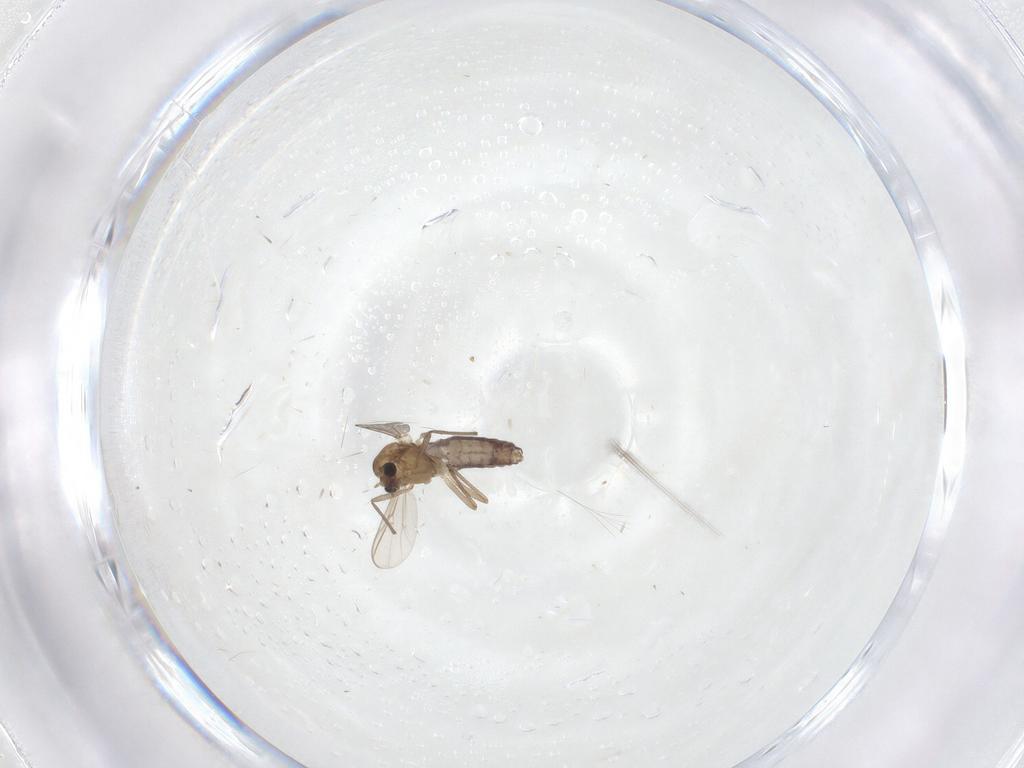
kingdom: Animalia
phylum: Arthropoda
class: Insecta
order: Diptera
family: Chironomidae
